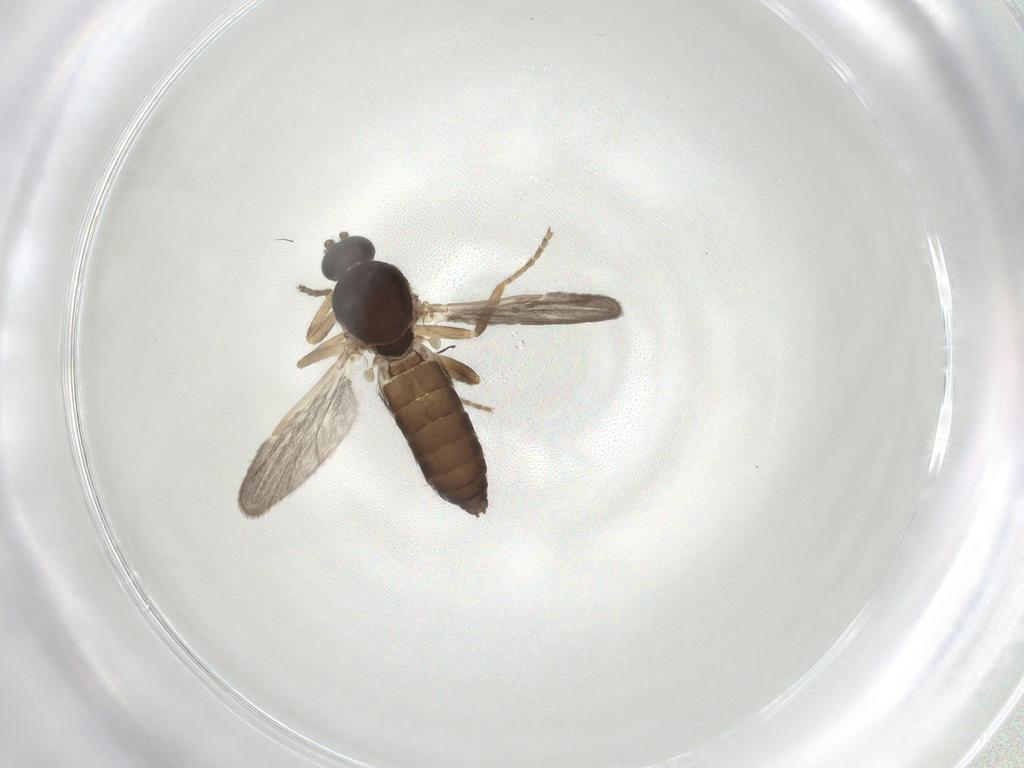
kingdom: Animalia
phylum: Arthropoda
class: Insecta
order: Diptera
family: Ceratopogonidae
